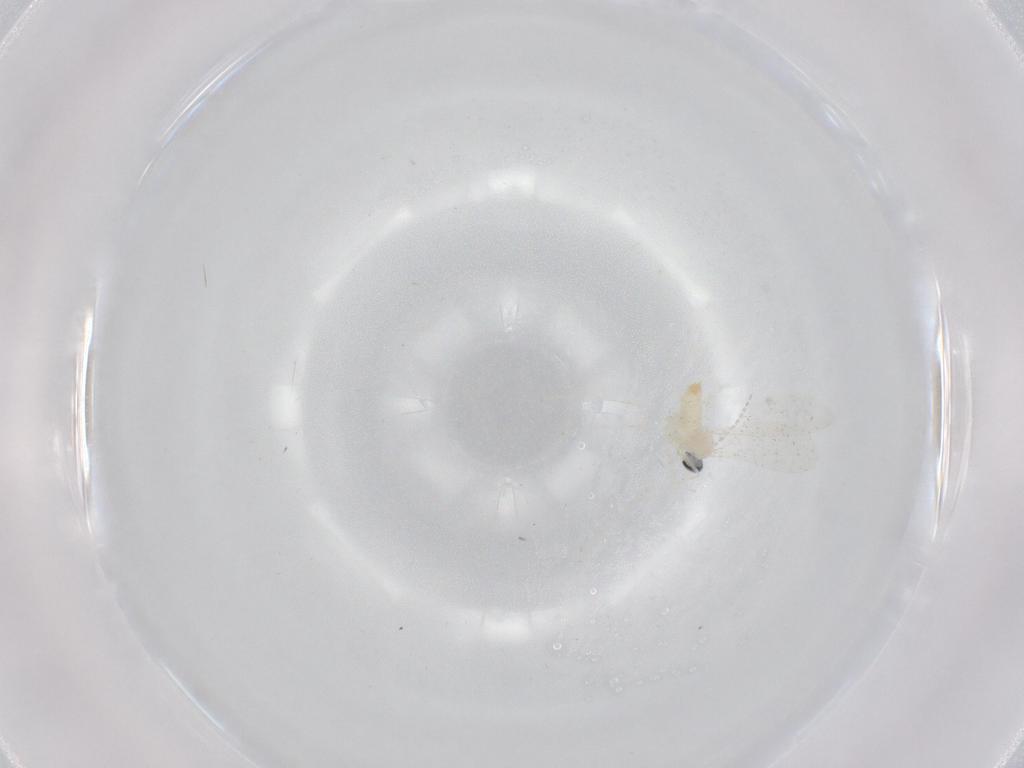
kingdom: Animalia
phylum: Arthropoda
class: Insecta
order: Diptera
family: Cecidomyiidae
